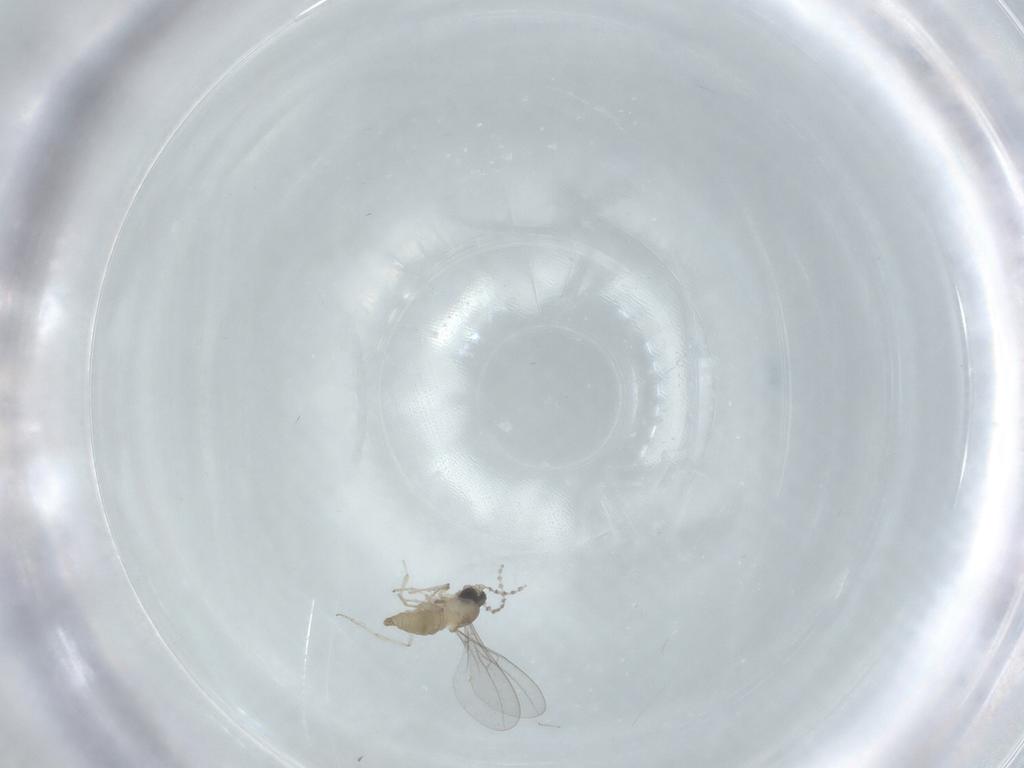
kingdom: Animalia
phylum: Arthropoda
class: Insecta
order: Diptera
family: Cecidomyiidae
